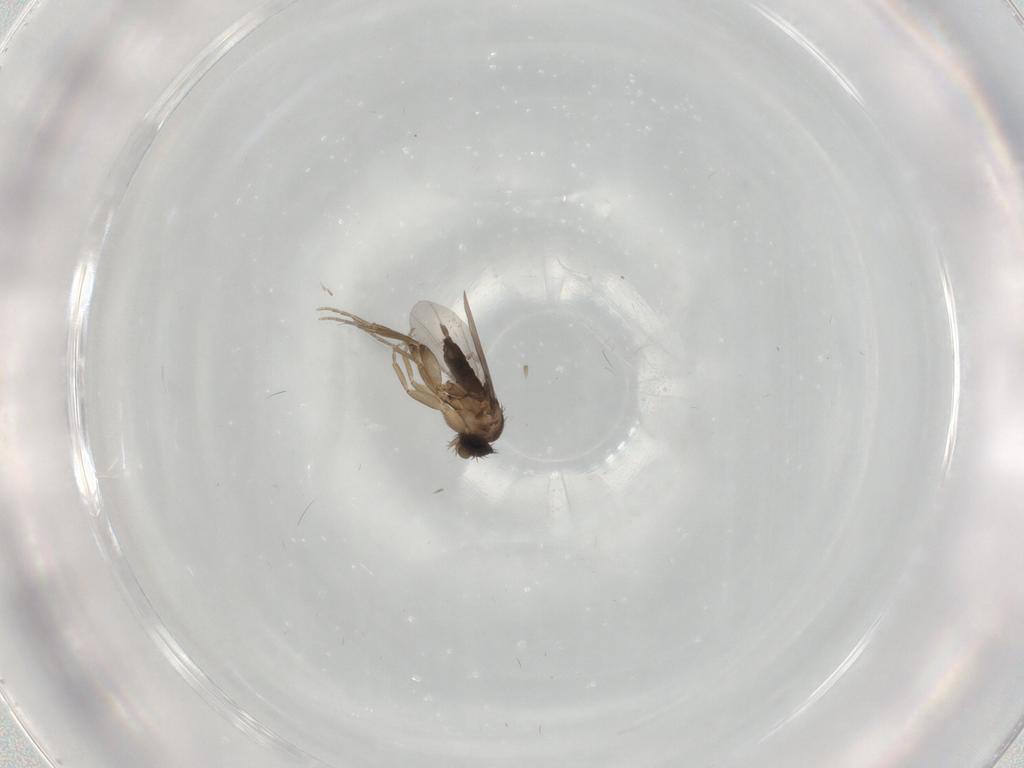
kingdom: Animalia
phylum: Arthropoda
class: Insecta
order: Diptera
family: Phoridae
